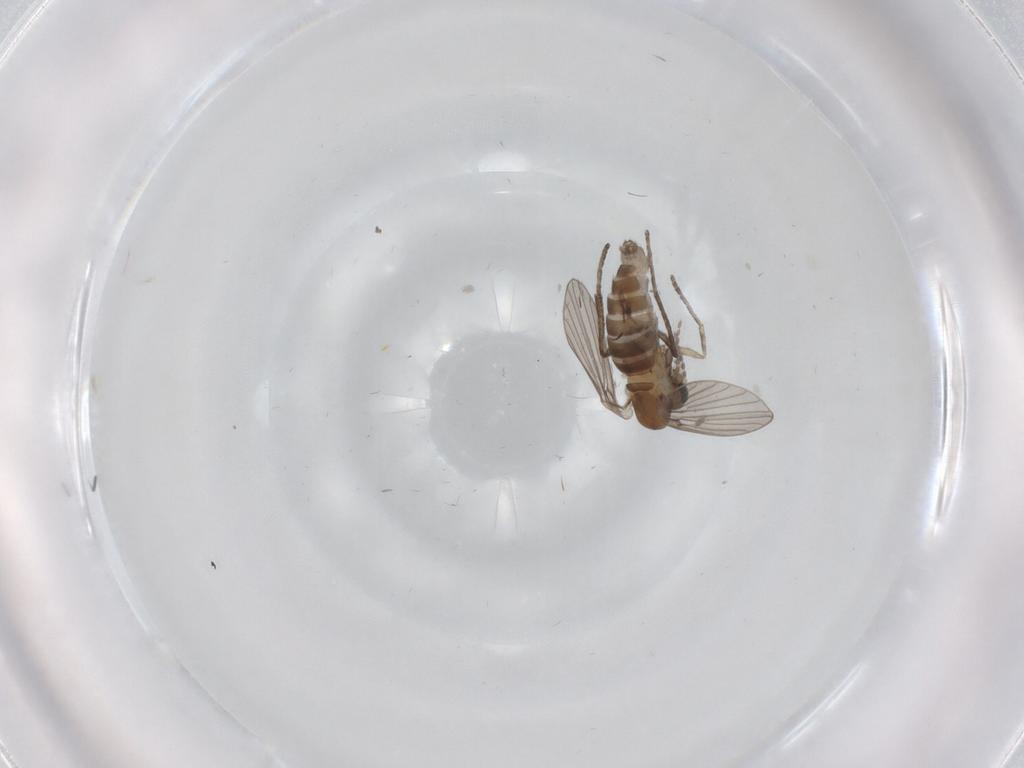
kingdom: Animalia
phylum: Arthropoda
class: Insecta
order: Diptera
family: Psychodidae
